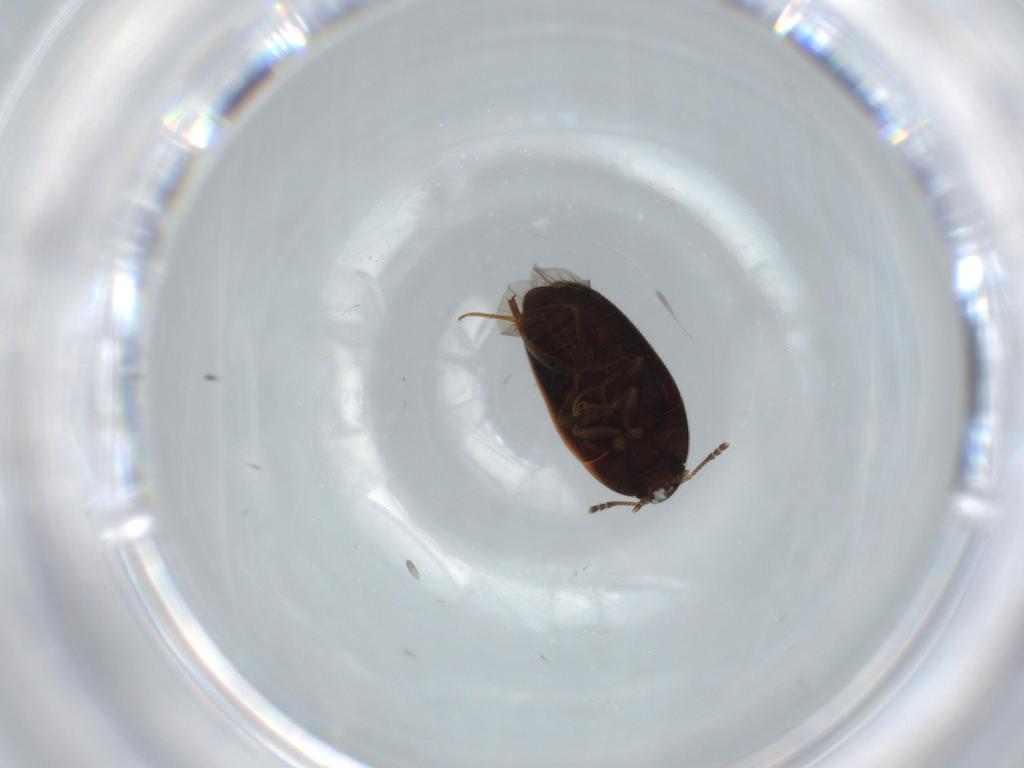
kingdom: Animalia
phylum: Arthropoda
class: Insecta
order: Coleoptera
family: Mycetophagidae
